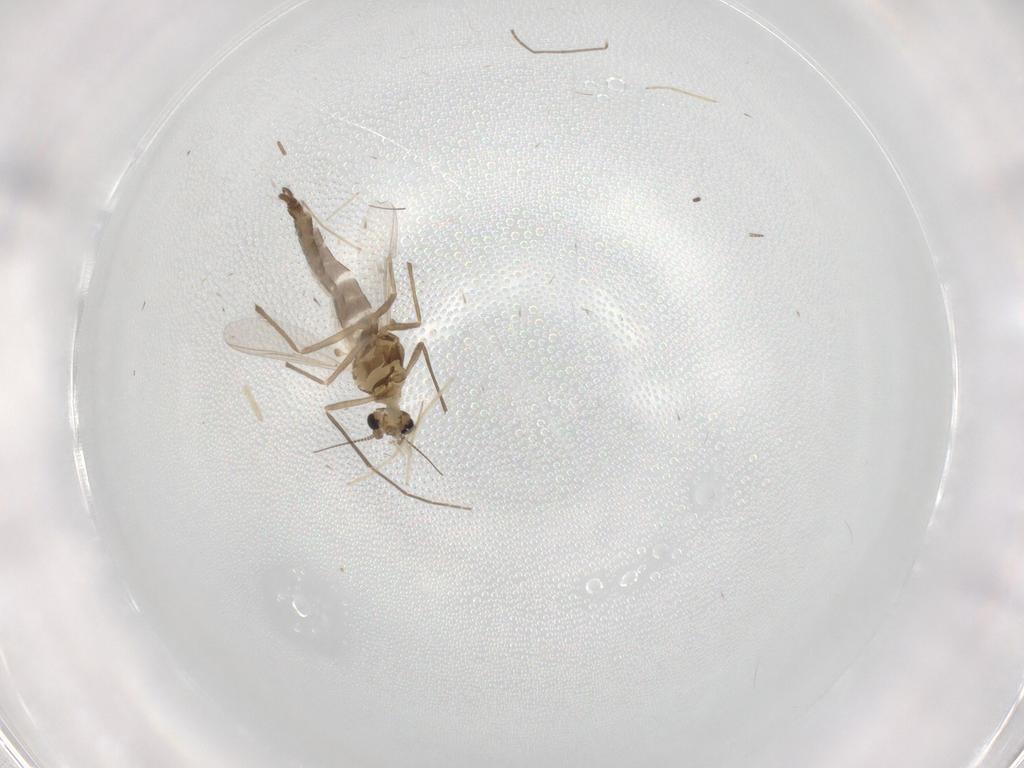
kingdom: Animalia
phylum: Arthropoda
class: Insecta
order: Diptera
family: Chironomidae
